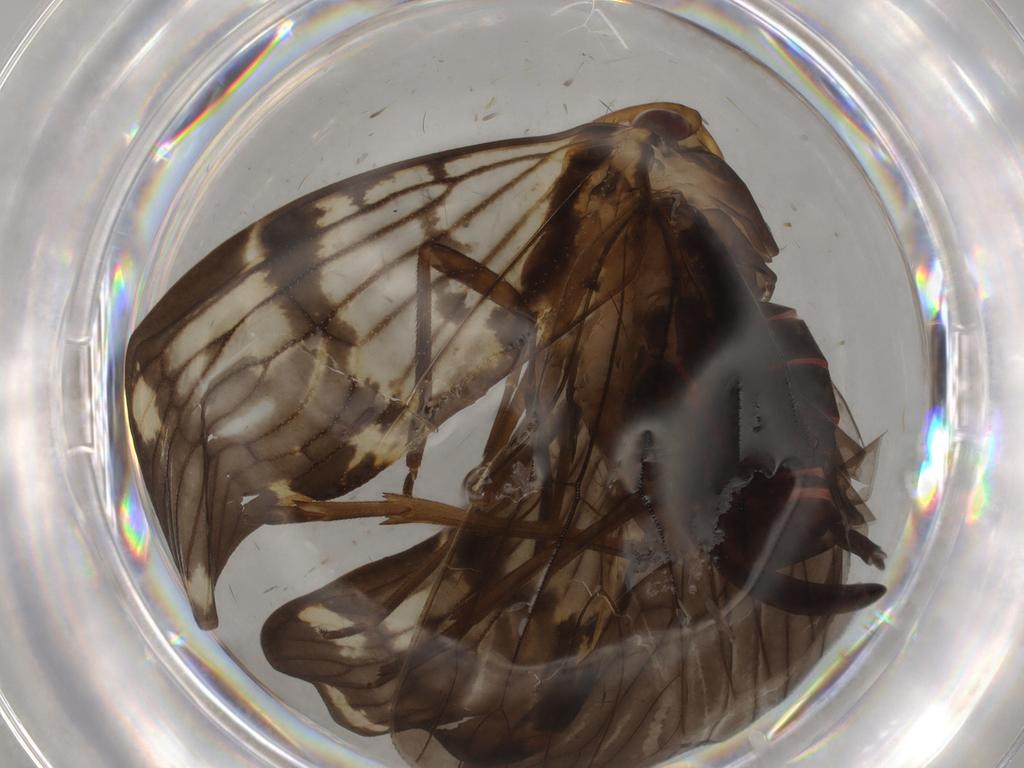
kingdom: Animalia
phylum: Arthropoda
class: Insecta
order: Hemiptera
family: Cixiidae
